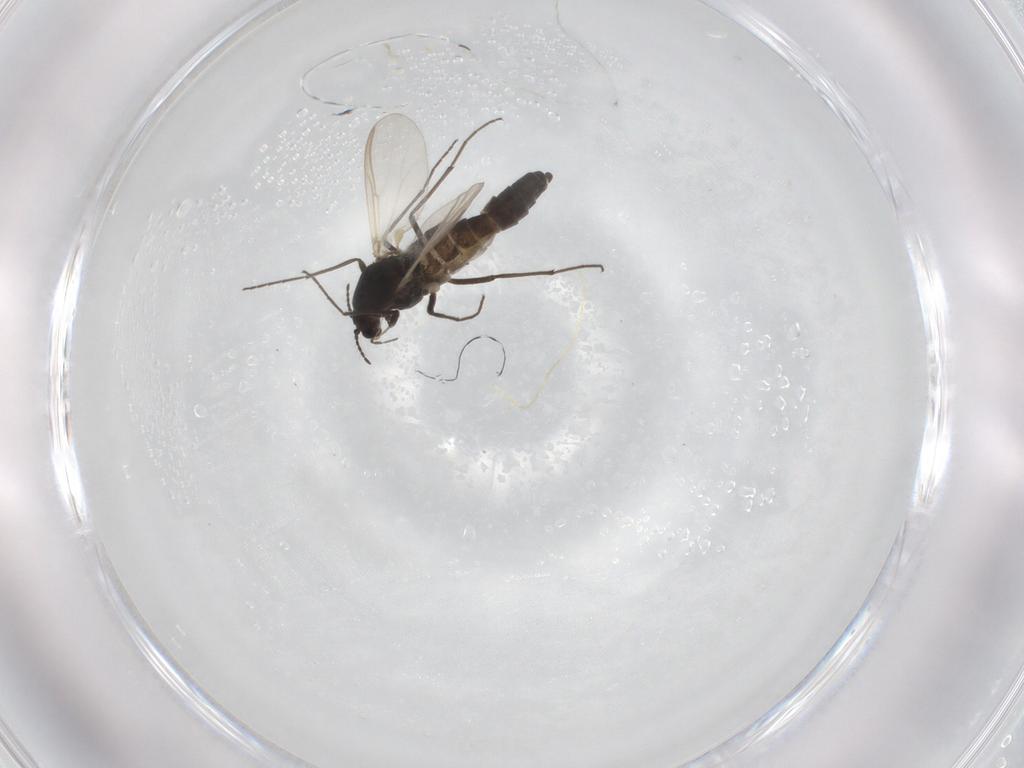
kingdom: Animalia
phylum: Arthropoda
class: Insecta
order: Diptera
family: Chironomidae
